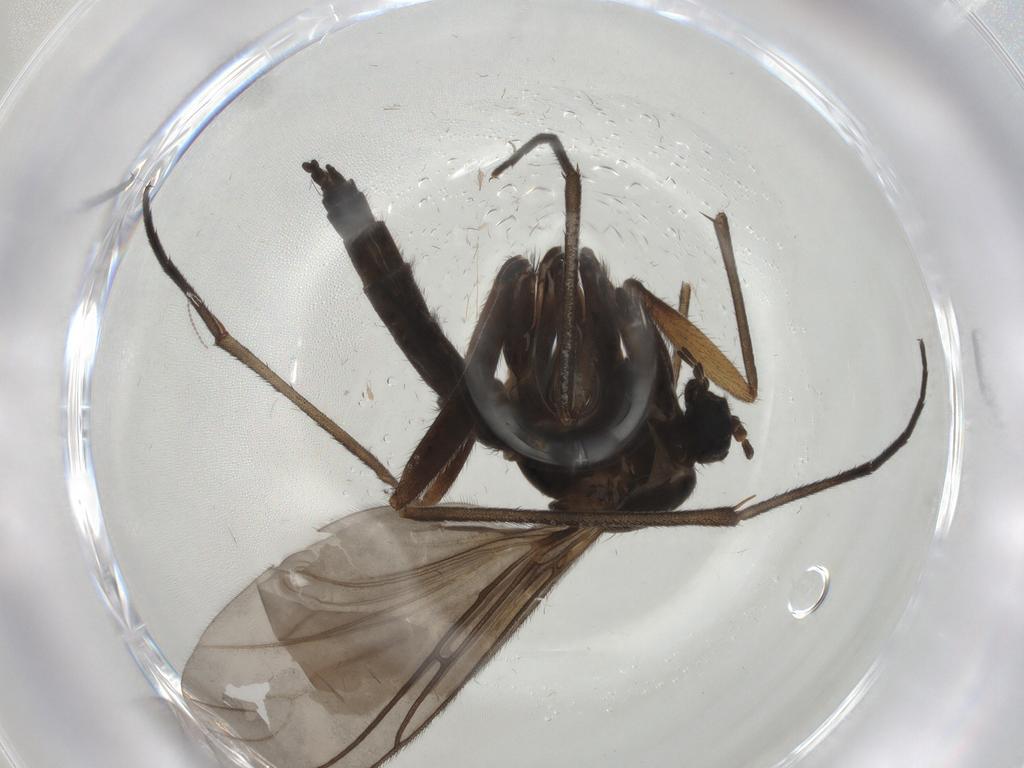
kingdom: Animalia
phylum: Arthropoda
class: Insecta
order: Diptera
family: Sciaridae
